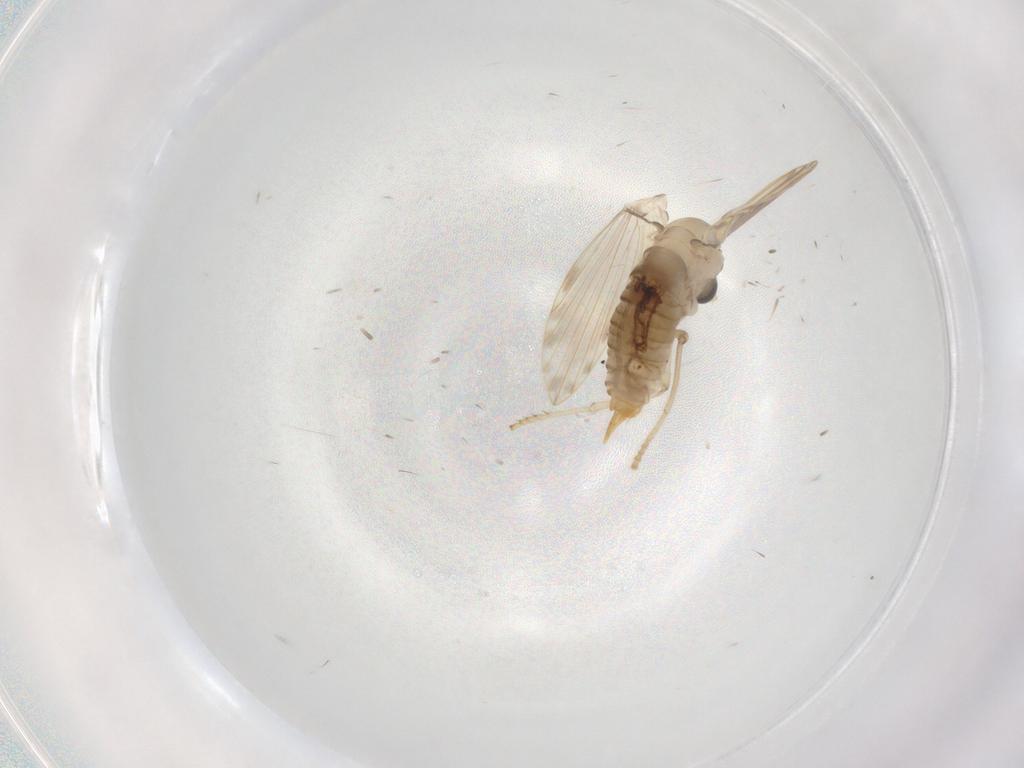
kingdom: Animalia
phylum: Arthropoda
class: Insecta
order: Diptera
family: Psychodidae
